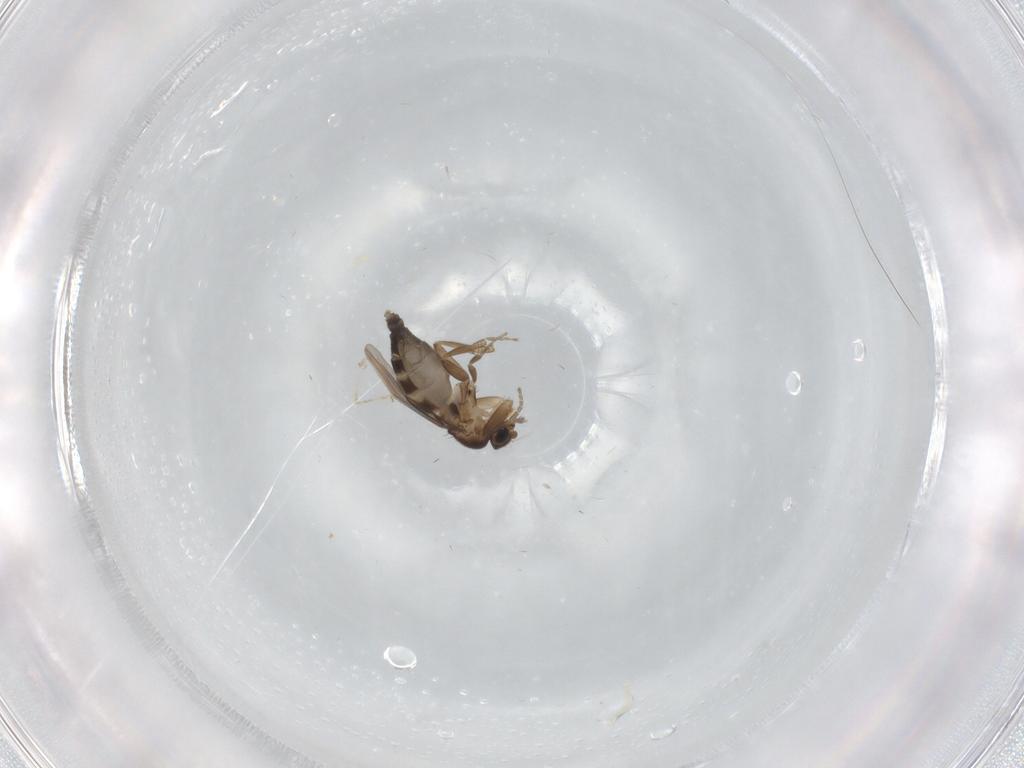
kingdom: Animalia
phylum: Arthropoda
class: Insecta
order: Diptera
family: Phoridae
